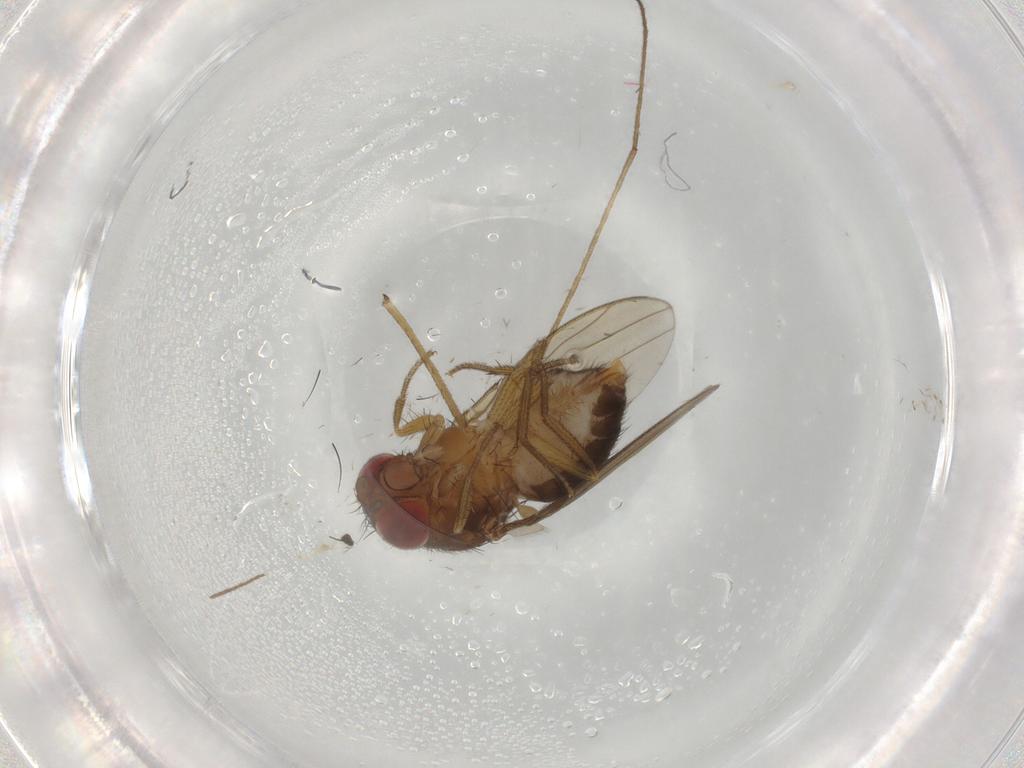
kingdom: Animalia
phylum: Arthropoda
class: Insecta
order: Diptera
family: Drosophilidae
